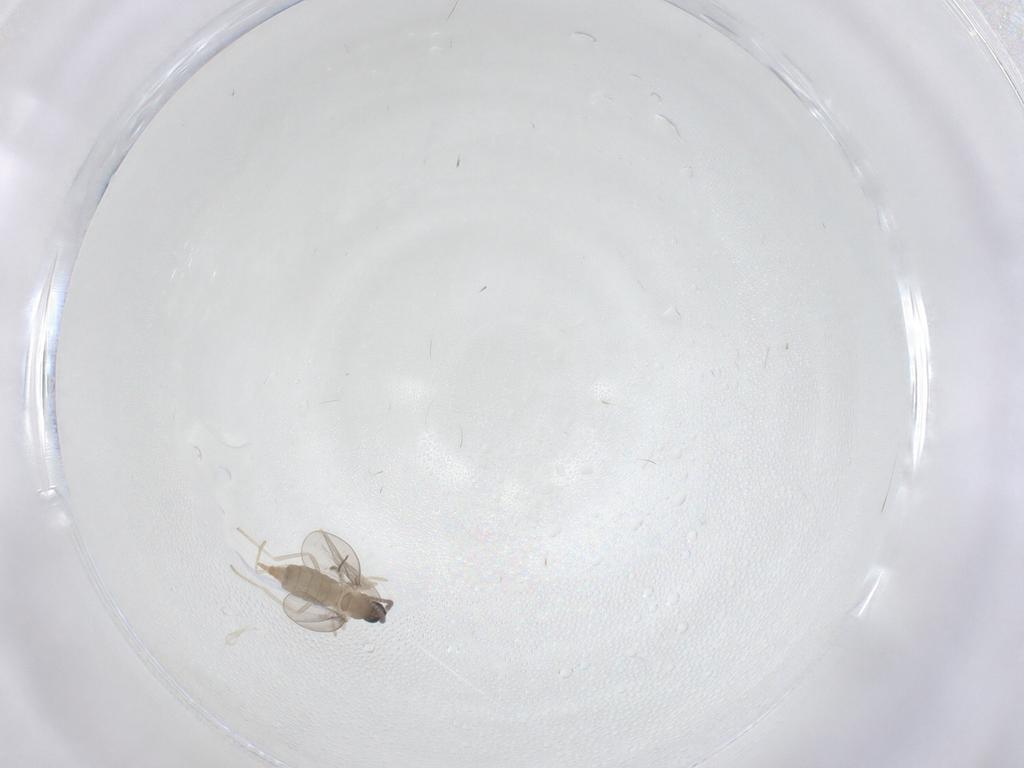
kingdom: Animalia
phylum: Arthropoda
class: Insecta
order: Diptera
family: Cecidomyiidae
